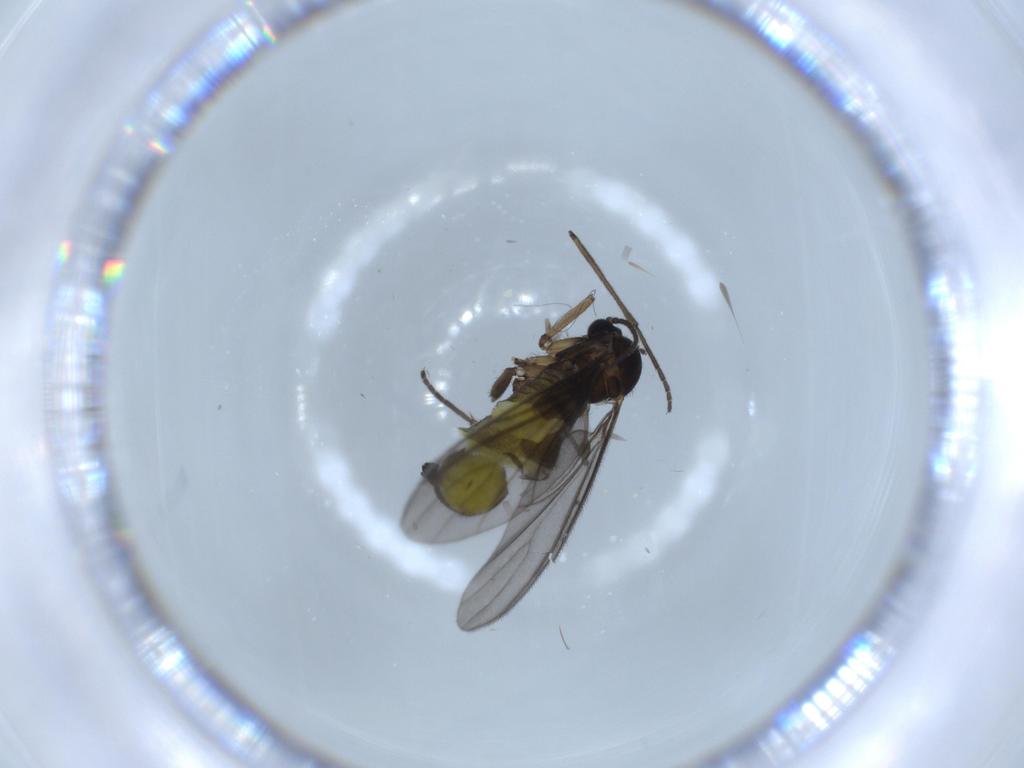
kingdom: Animalia
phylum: Arthropoda
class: Insecta
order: Diptera
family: Sciaridae
